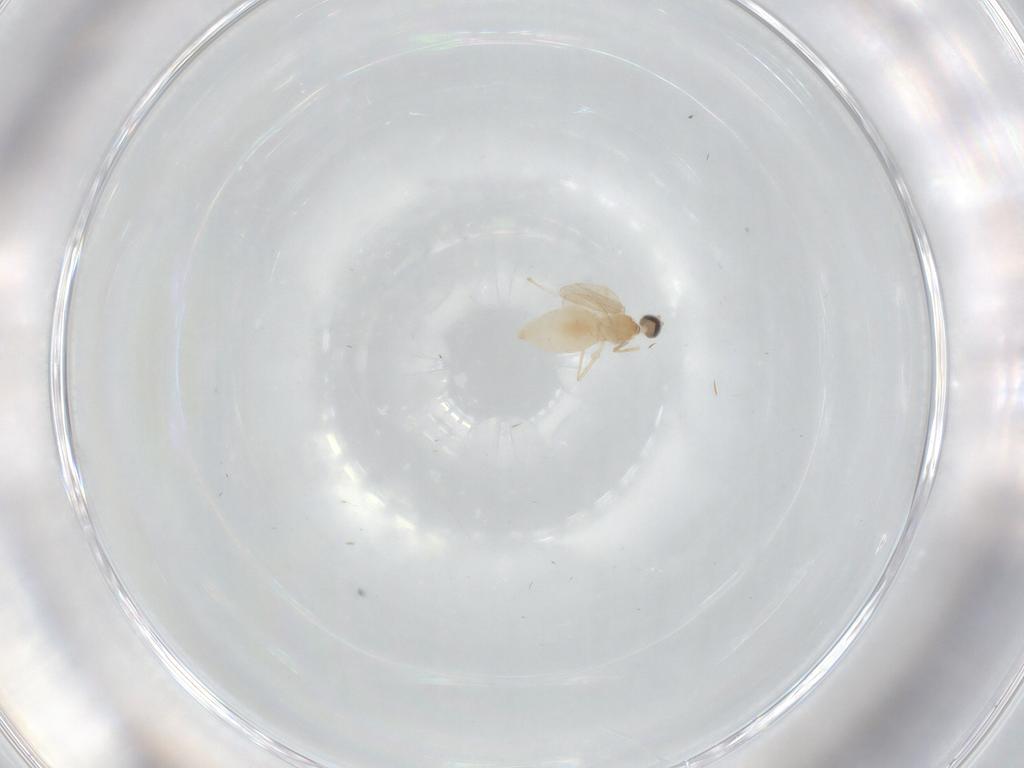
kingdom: Animalia
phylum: Arthropoda
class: Insecta
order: Diptera
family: Cecidomyiidae
